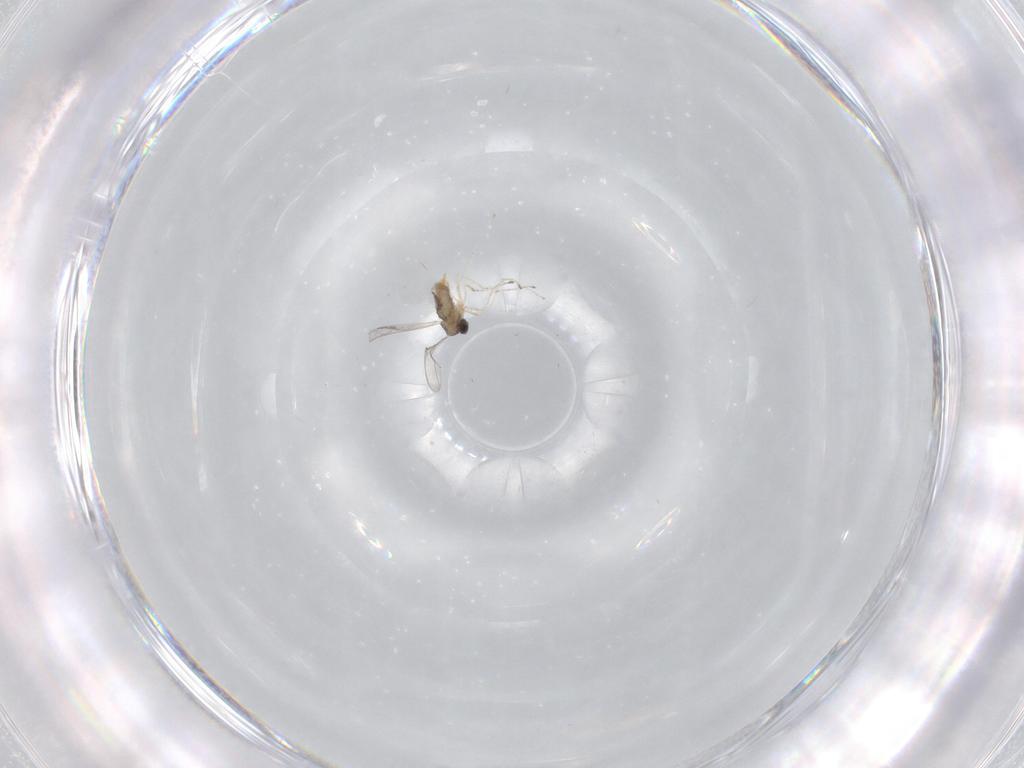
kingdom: Animalia
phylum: Arthropoda
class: Insecta
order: Diptera
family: Cecidomyiidae
